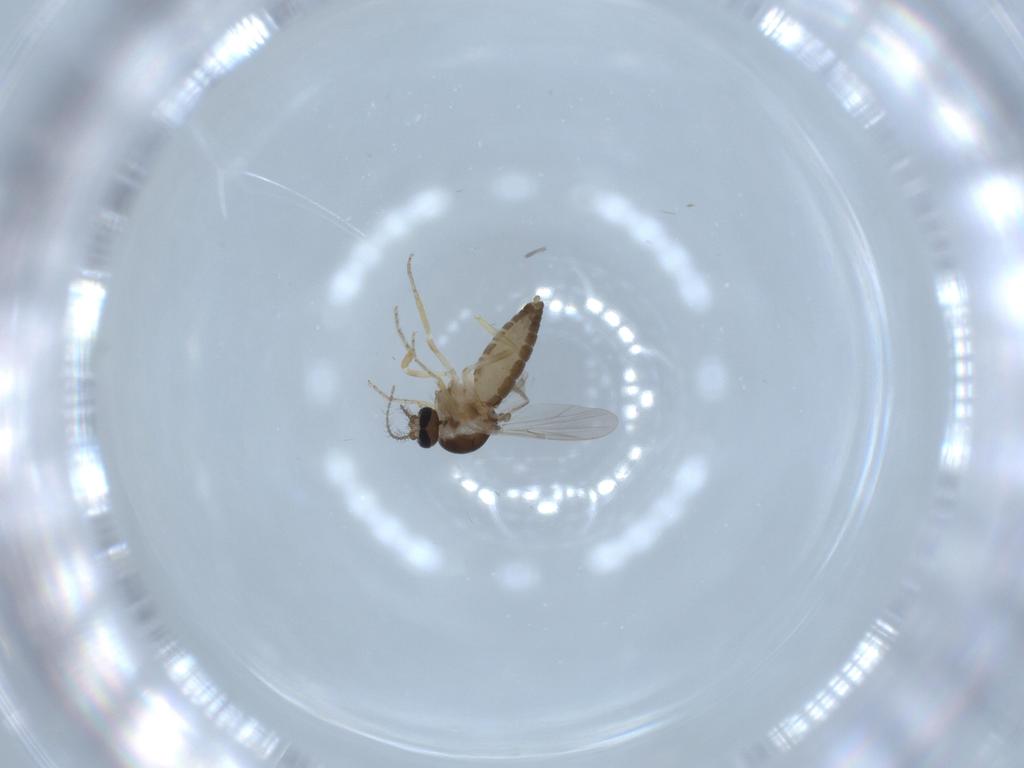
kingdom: Animalia
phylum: Arthropoda
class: Insecta
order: Diptera
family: Ceratopogonidae
